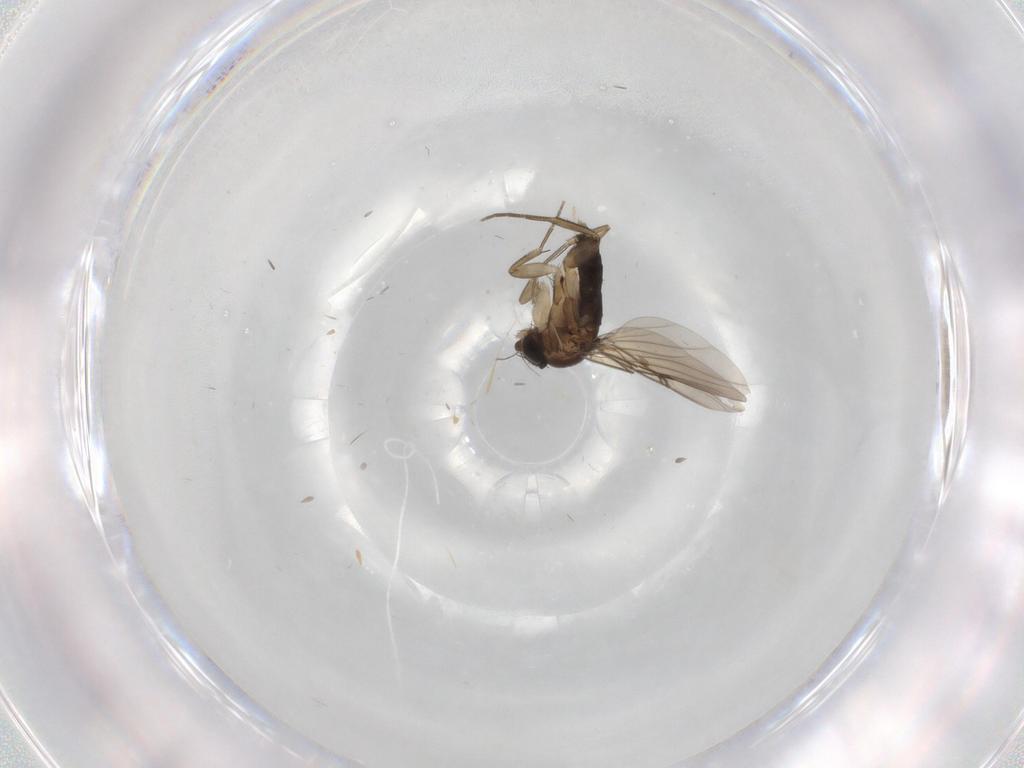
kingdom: Animalia
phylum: Arthropoda
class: Insecta
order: Diptera
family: Phoridae
